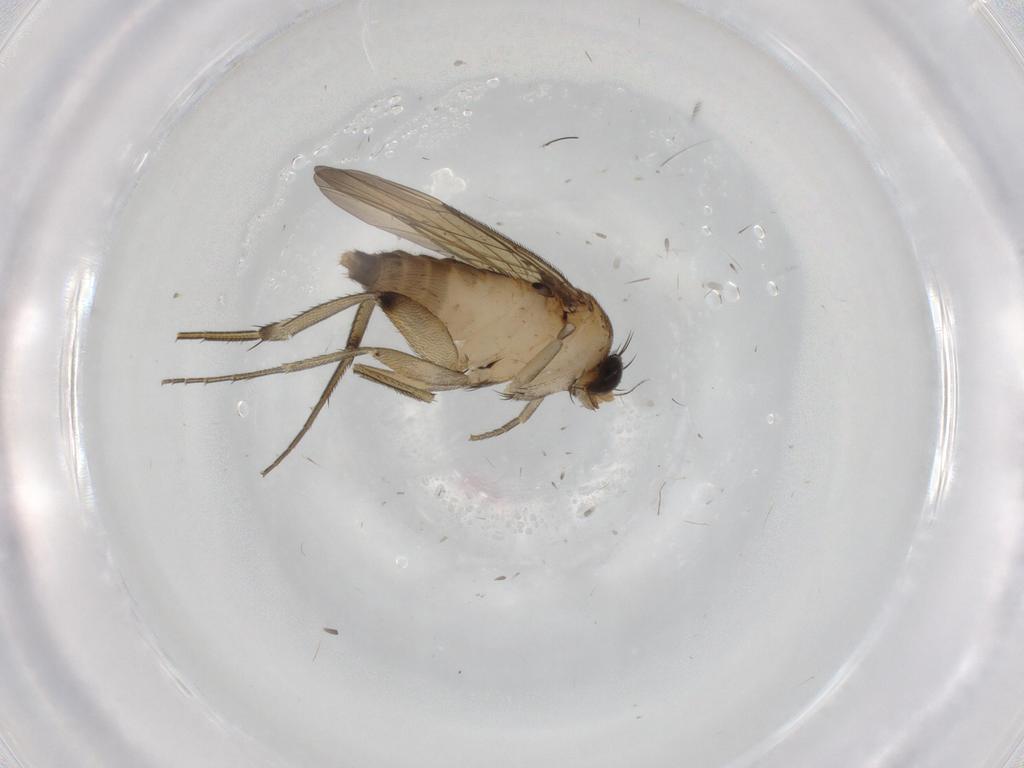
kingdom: Animalia
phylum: Arthropoda
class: Insecta
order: Diptera
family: Phoridae
